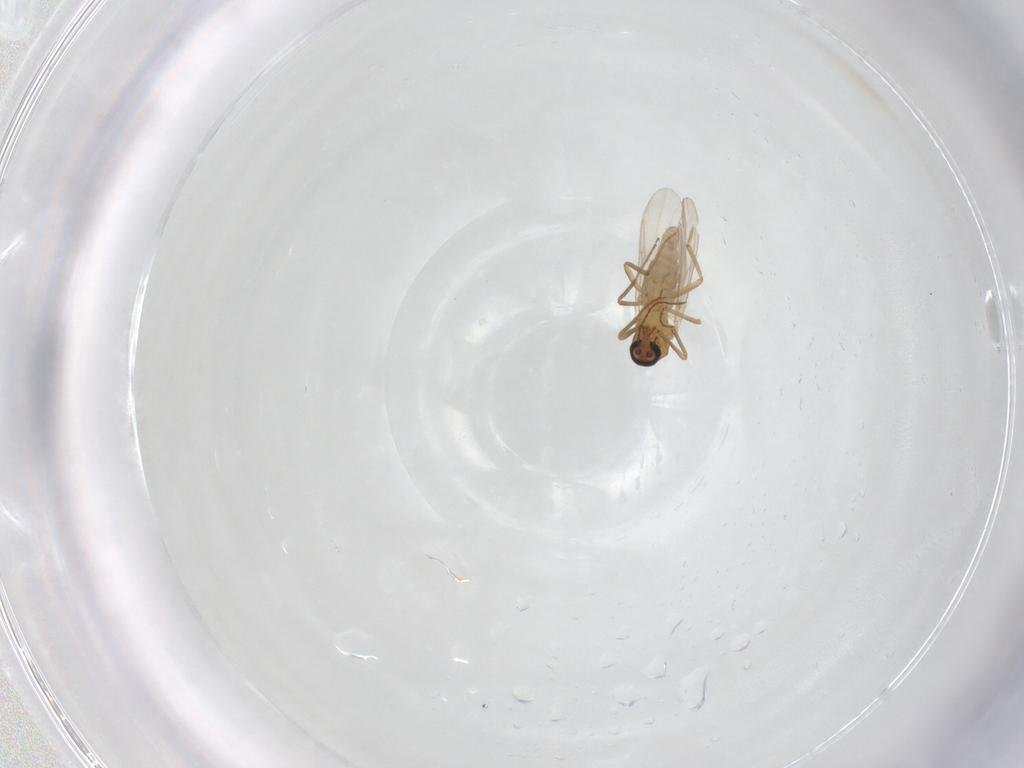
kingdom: Animalia
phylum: Arthropoda
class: Insecta
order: Diptera
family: Ceratopogonidae
